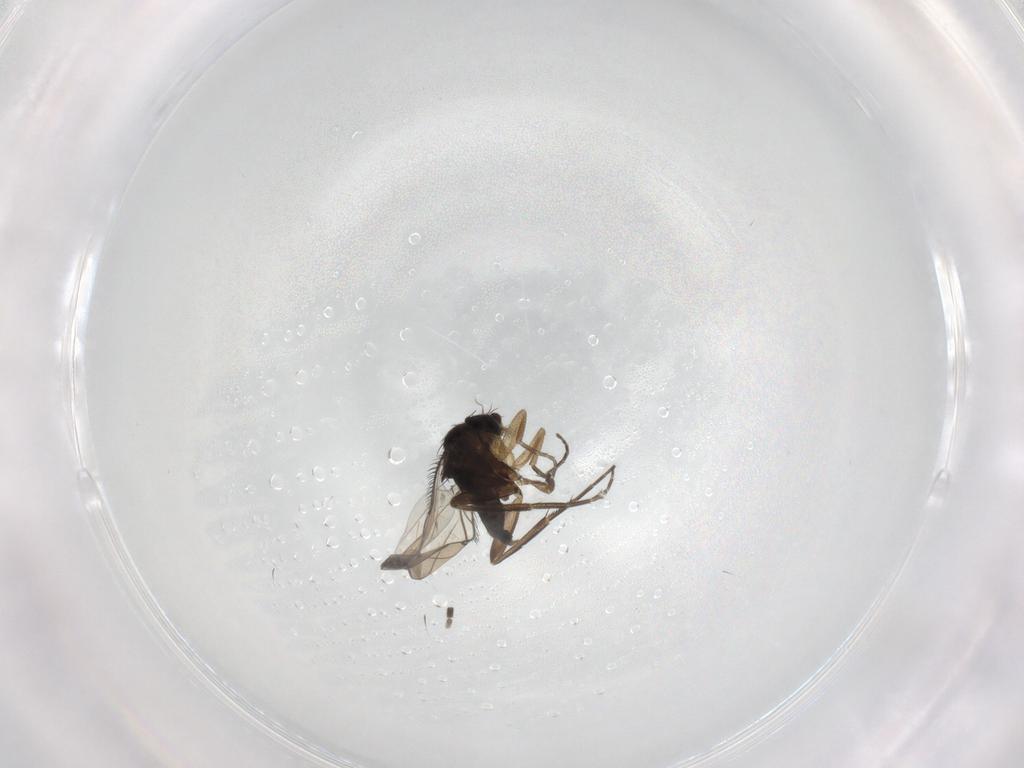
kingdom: Animalia
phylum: Arthropoda
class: Insecta
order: Diptera
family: Phoridae
